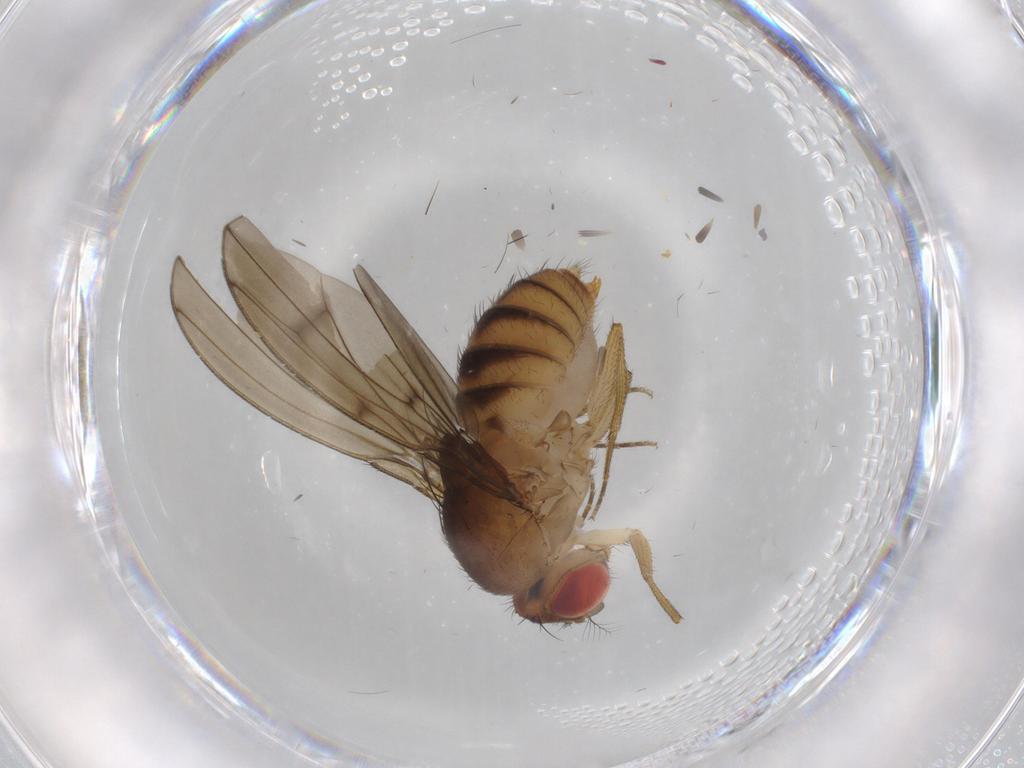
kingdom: Animalia
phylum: Arthropoda
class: Insecta
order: Diptera
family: Drosophilidae
